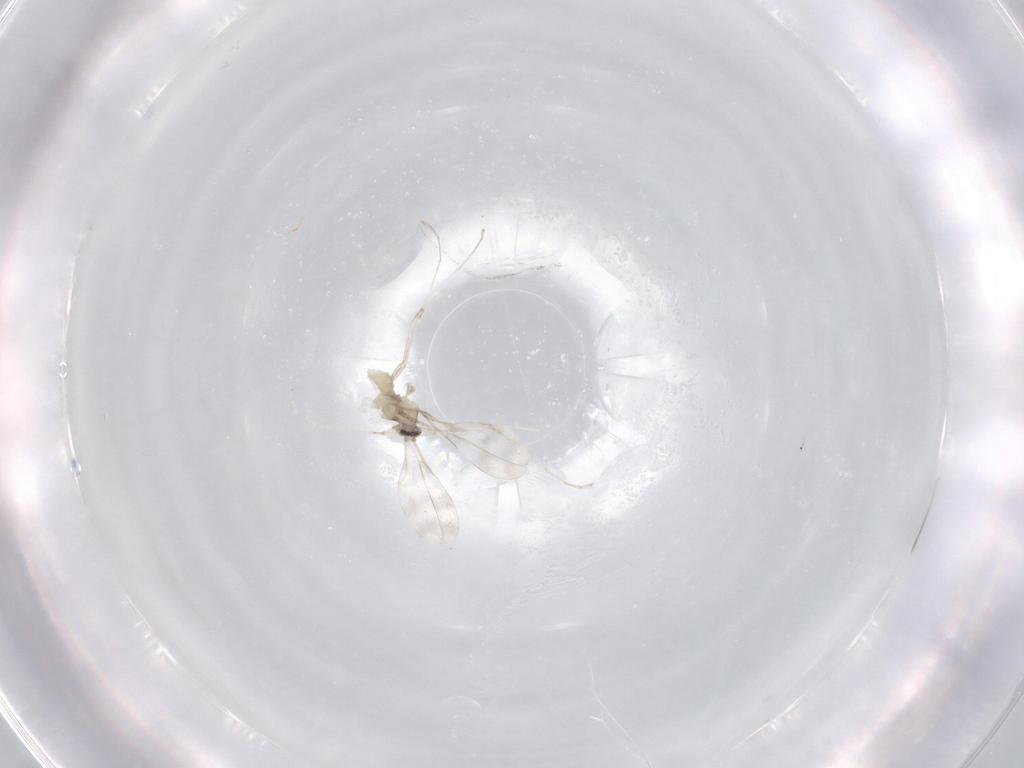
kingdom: Animalia
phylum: Arthropoda
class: Insecta
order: Diptera
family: Cecidomyiidae
